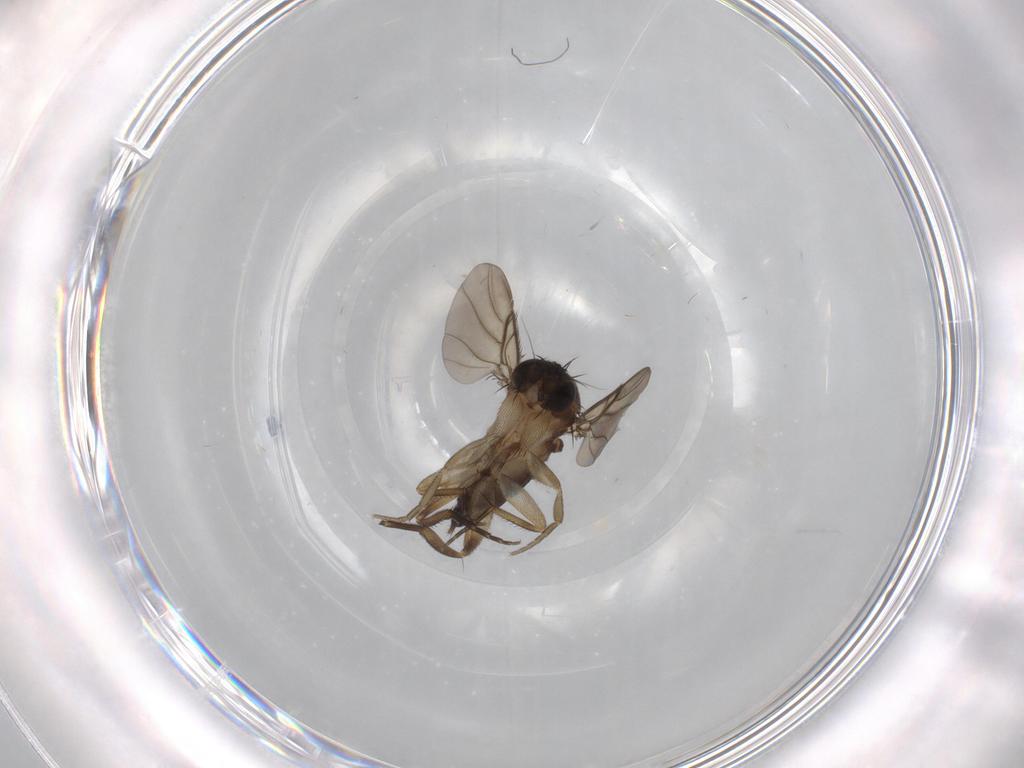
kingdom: Animalia
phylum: Arthropoda
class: Insecta
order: Diptera
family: Phoridae
